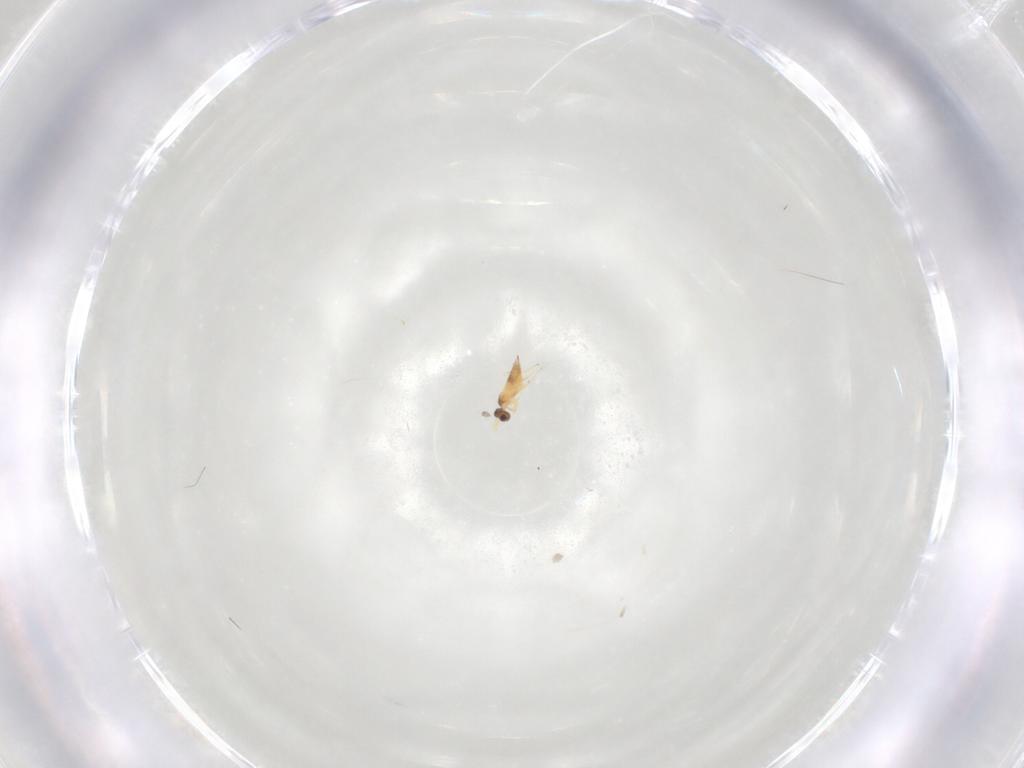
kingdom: Animalia
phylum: Arthropoda
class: Insecta
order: Hymenoptera
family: Mymaridae
